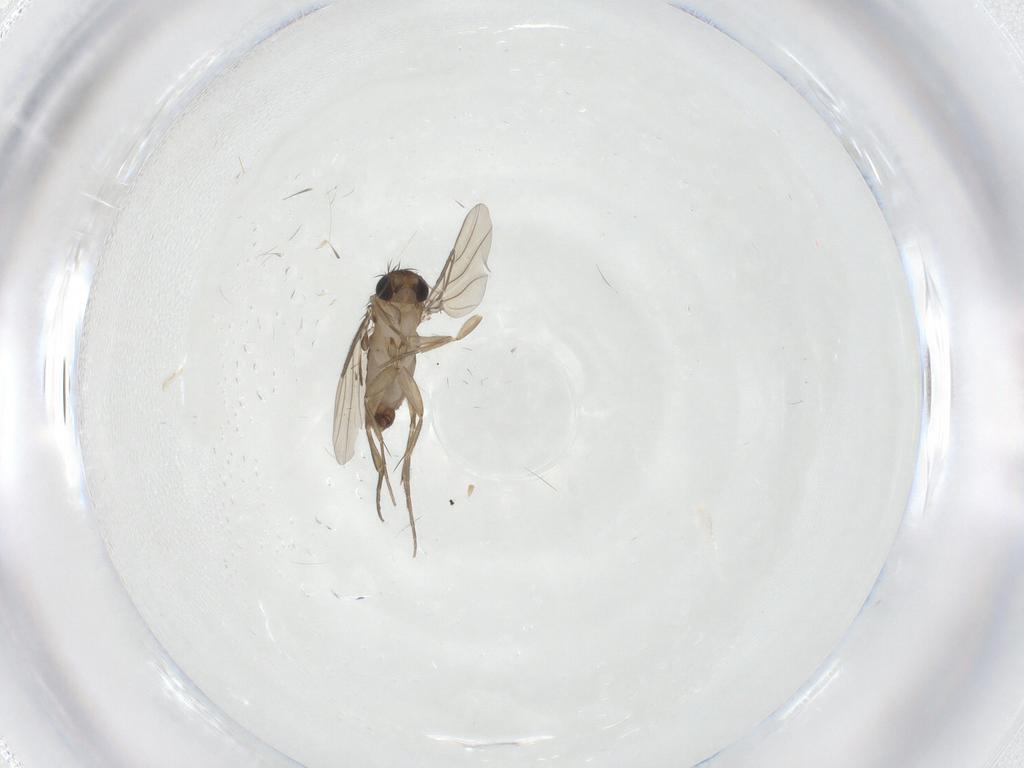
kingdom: Animalia
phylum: Arthropoda
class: Insecta
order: Diptera
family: Phoridae
